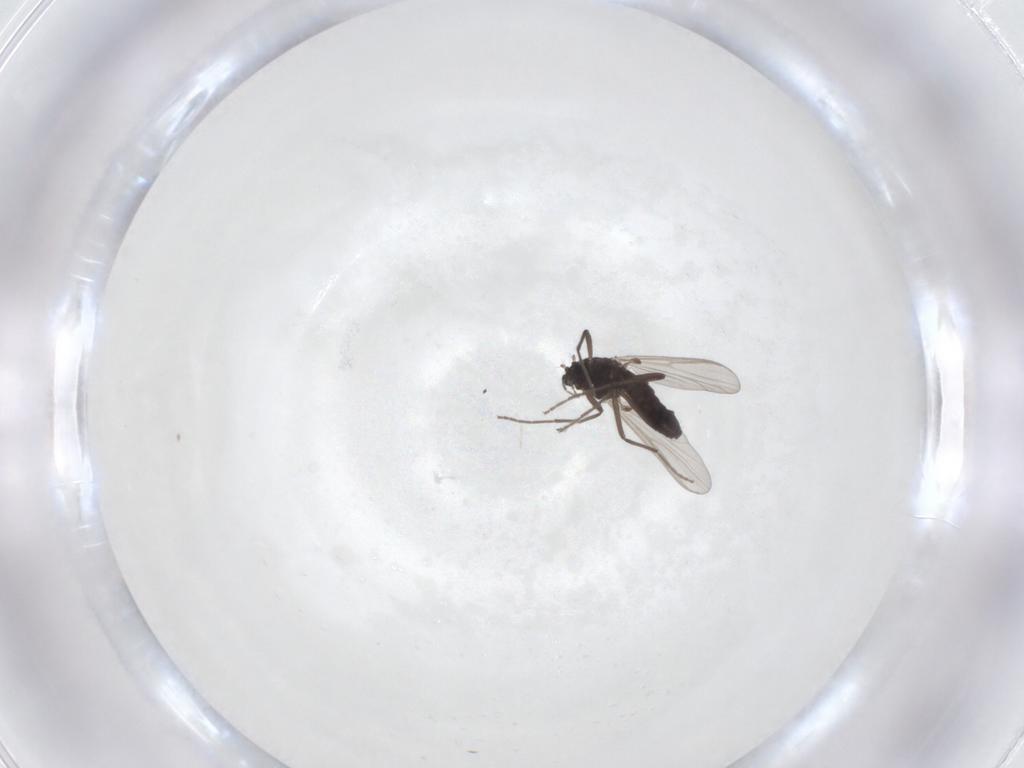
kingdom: Animalia
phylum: Arthropoda
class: Insecta
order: Diptera
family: Chironomidae
